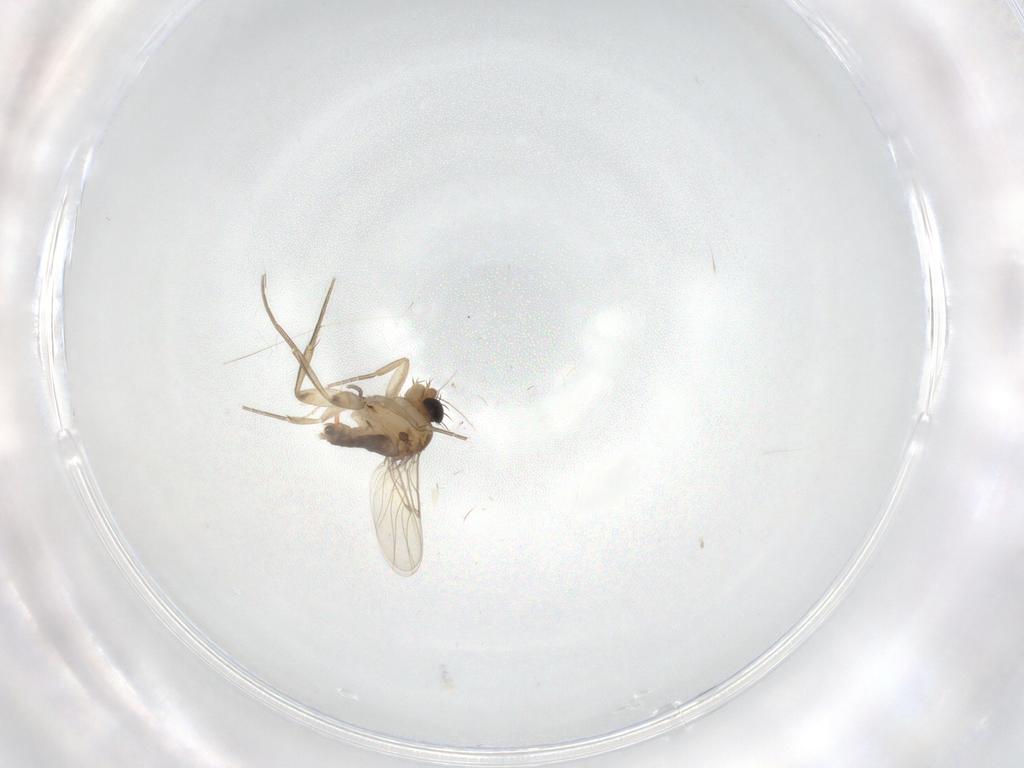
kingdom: Animalia
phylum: Arthropoda
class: Insecta
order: Diptera
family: Phoridae
